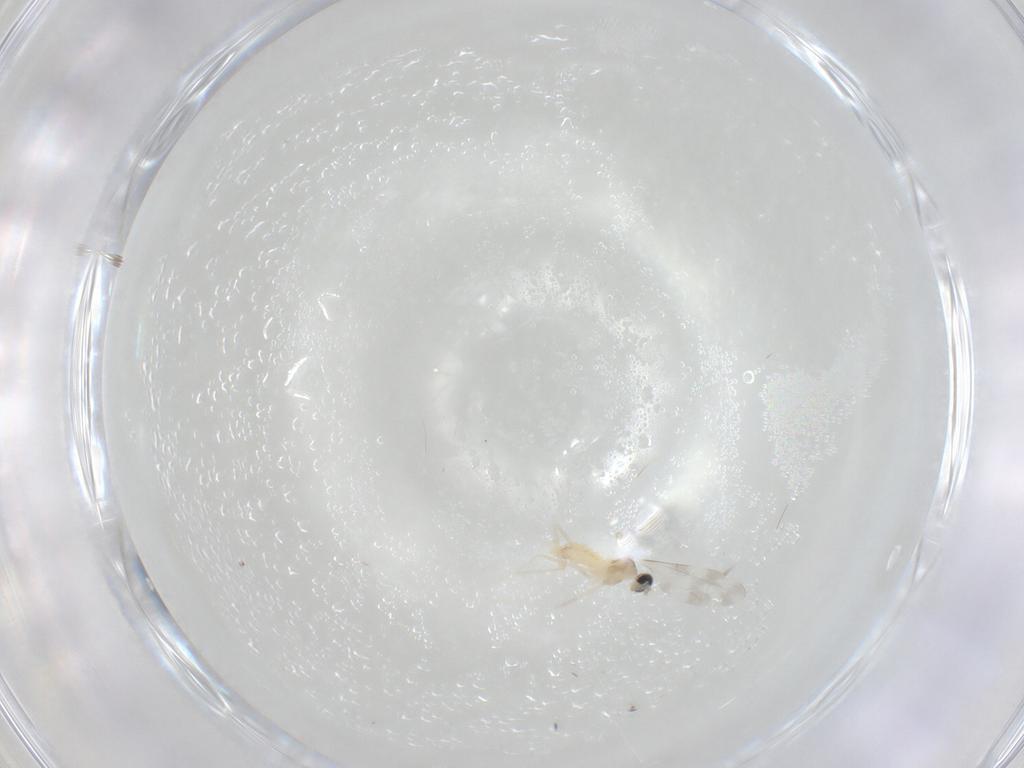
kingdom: Animalia
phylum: Arthropoda
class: Insecta
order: Diptera
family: Cecidomyiidae
